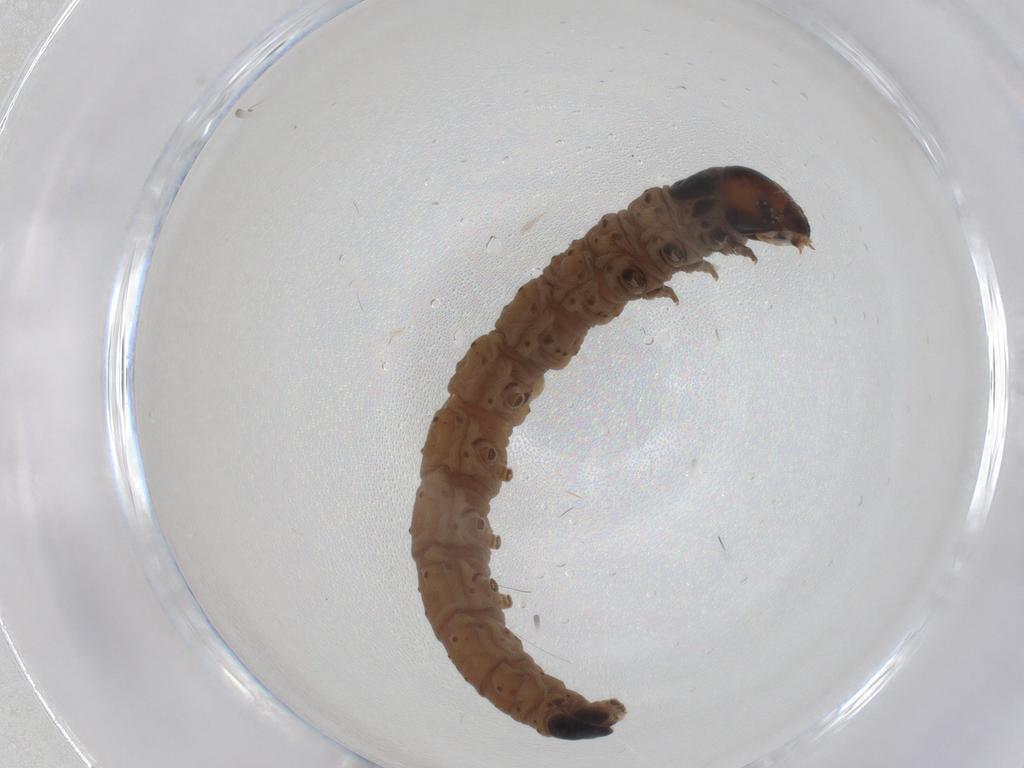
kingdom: Animalia
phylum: Arthropoda
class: Insecta
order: Lepidoptera
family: Gelechiidae
